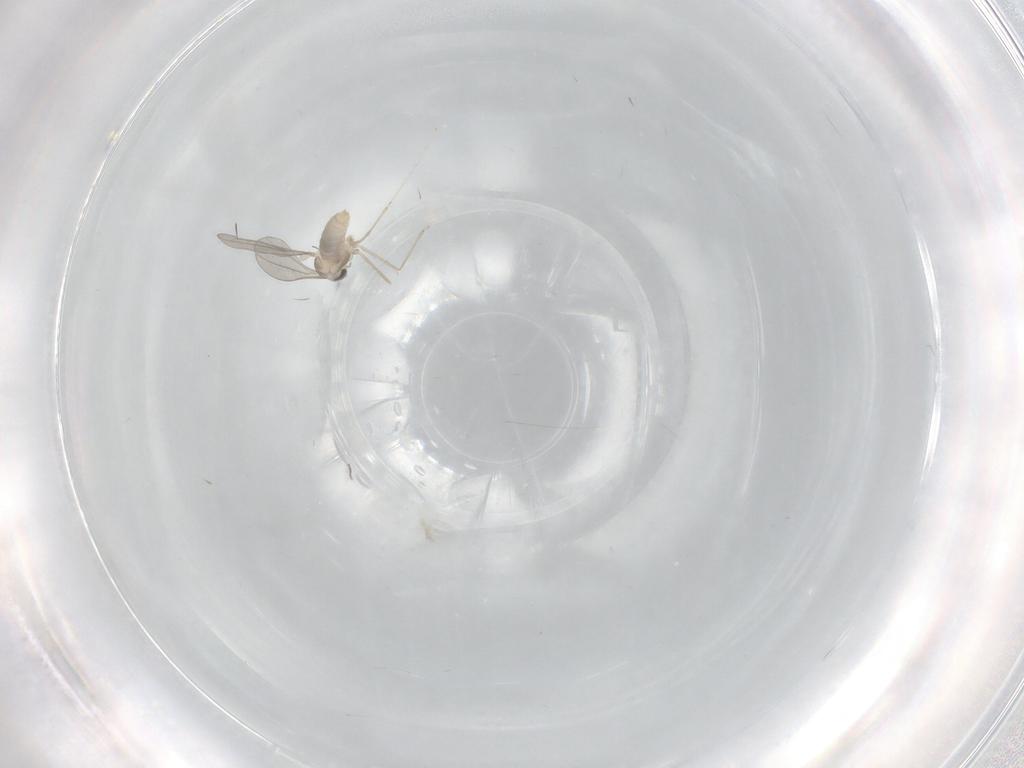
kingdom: Animalia
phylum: Arthropoda
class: Insecta
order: Diptera
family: Cecidomyiidae
